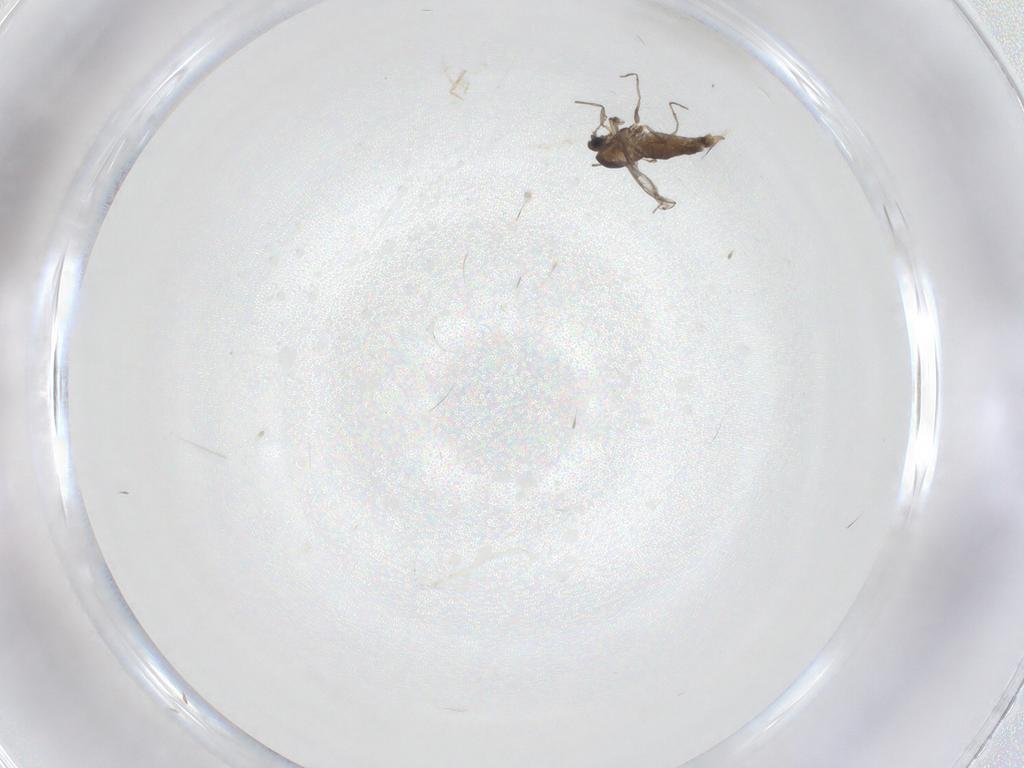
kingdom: Animalia
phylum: Arthropoda
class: Insecta
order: Diptera
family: Chironomidae
